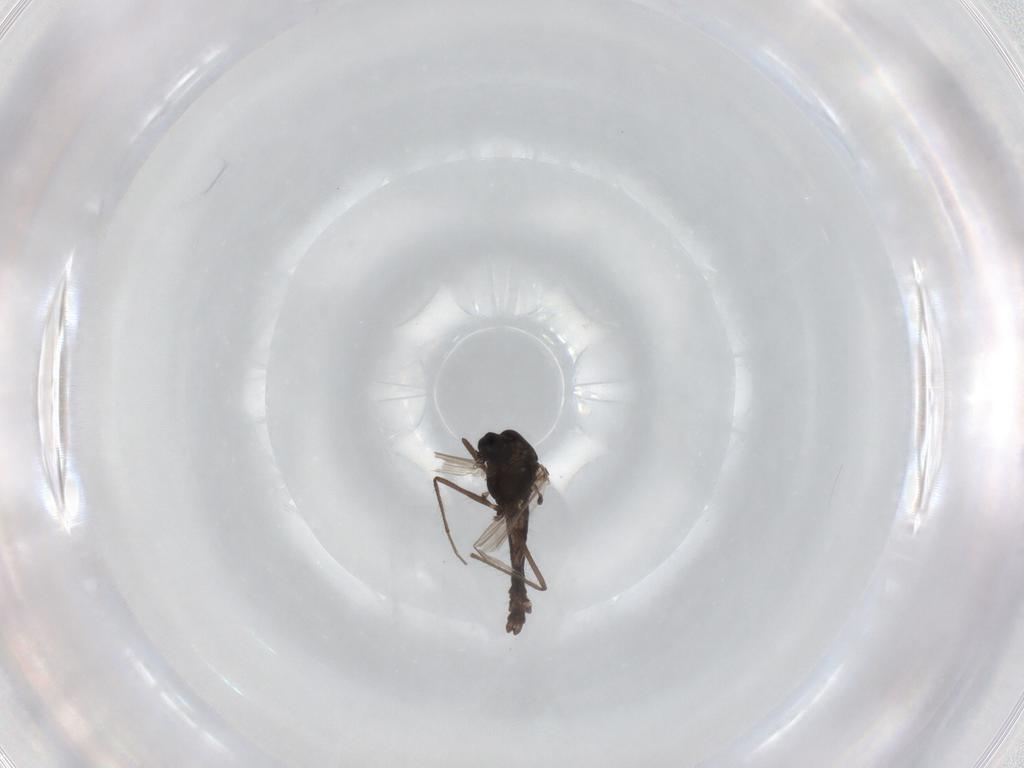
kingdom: Animalia
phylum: Arthropoda
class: Insecta
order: Diptera
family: Chironomidae
